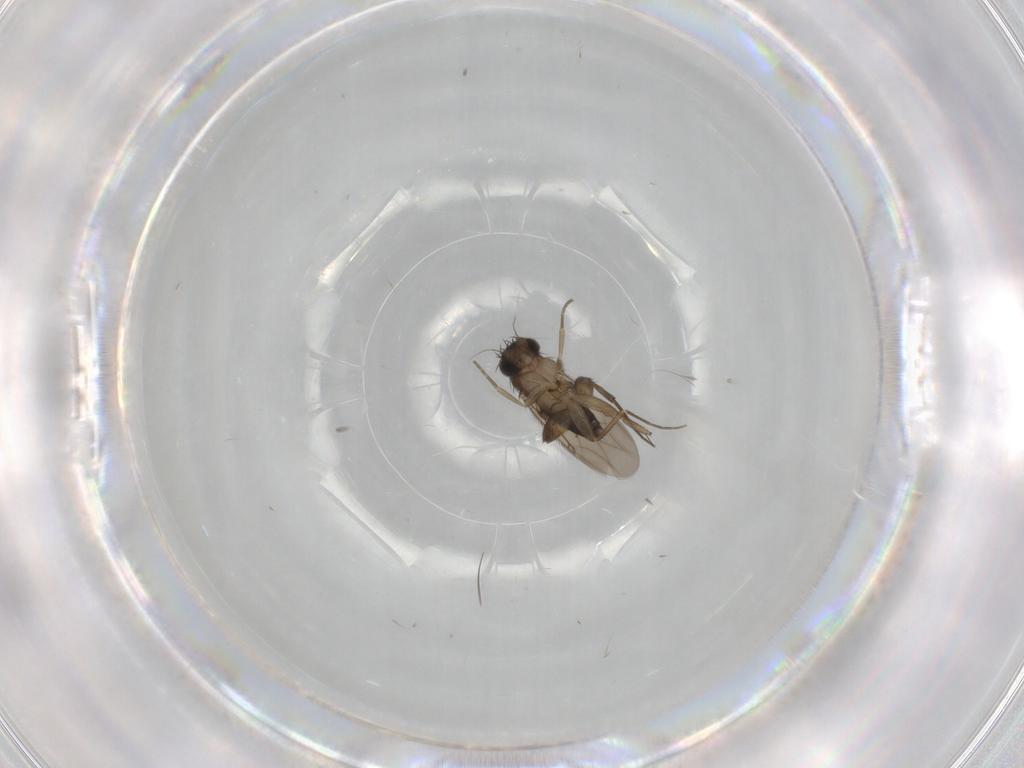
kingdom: Animalia
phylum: Arthropoda
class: Insecta
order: Diptera
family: Phoridae
